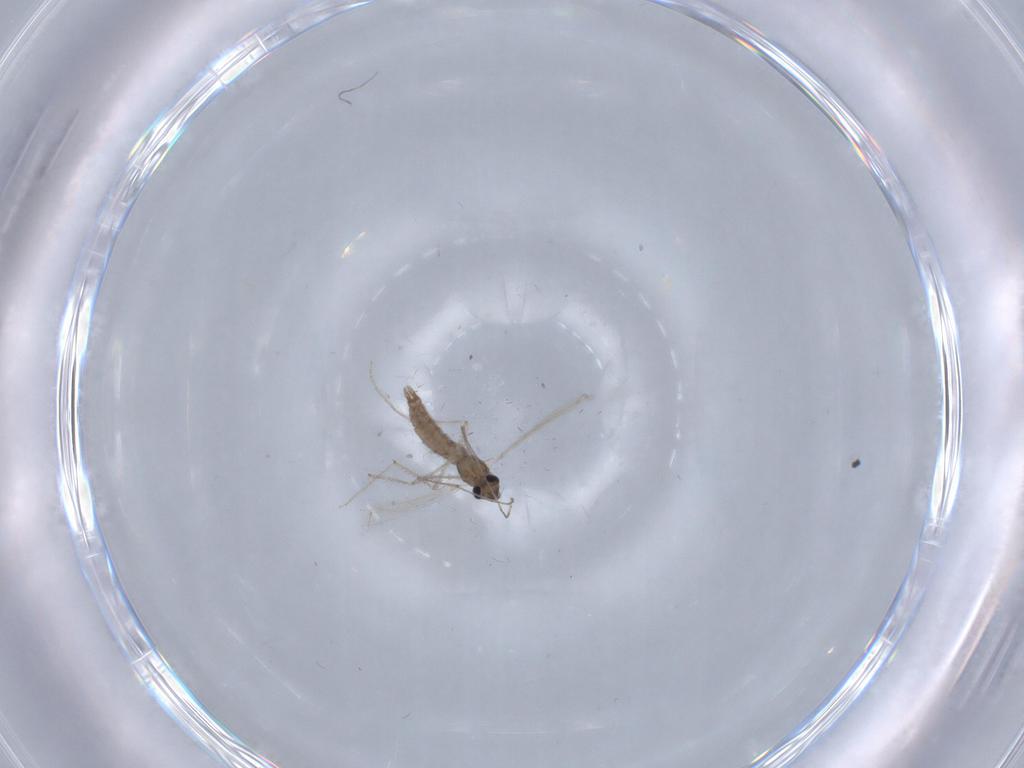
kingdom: Animalia
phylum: Arthropoda
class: Insecta
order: Diptera
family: Chironomidae
